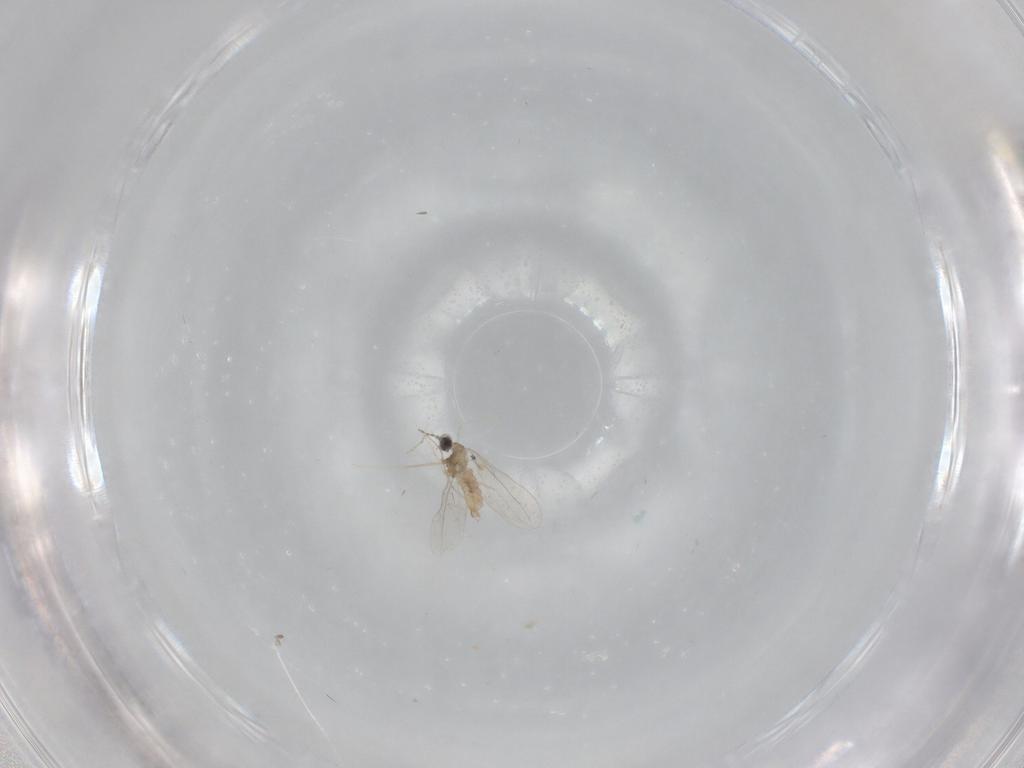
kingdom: Animalia
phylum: Arthropoda
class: Insecta
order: Diptera
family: Cecidomyiidae
